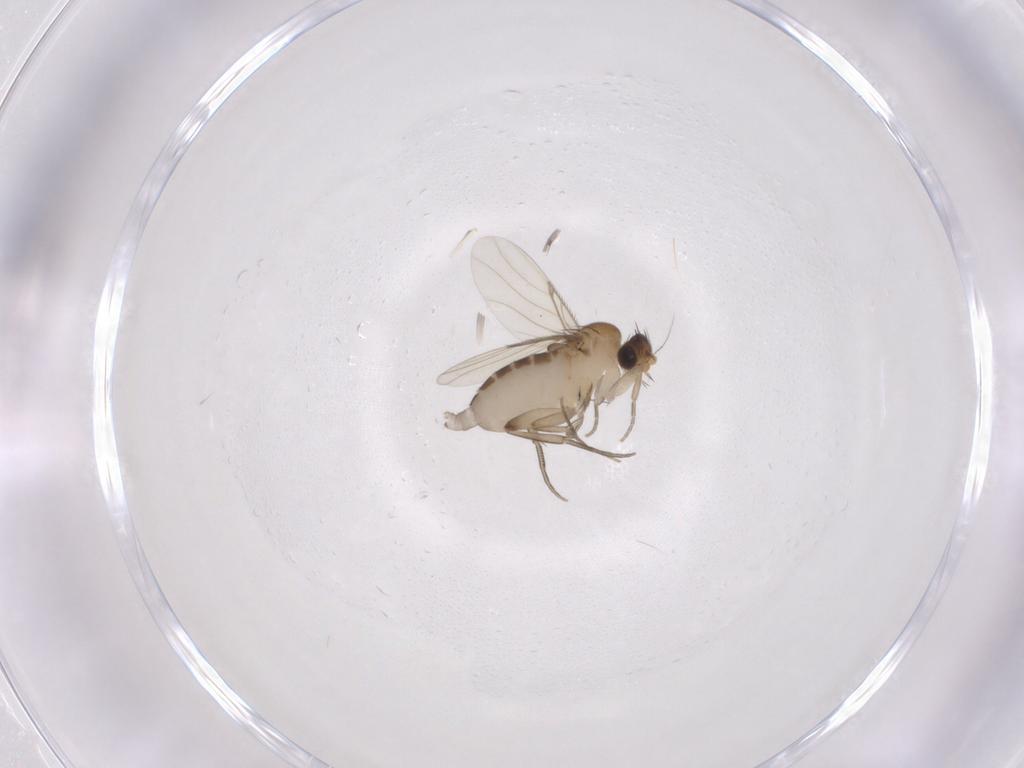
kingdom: Animalia
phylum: Arthropoda
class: Insecta
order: Diptera
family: Phoridae
